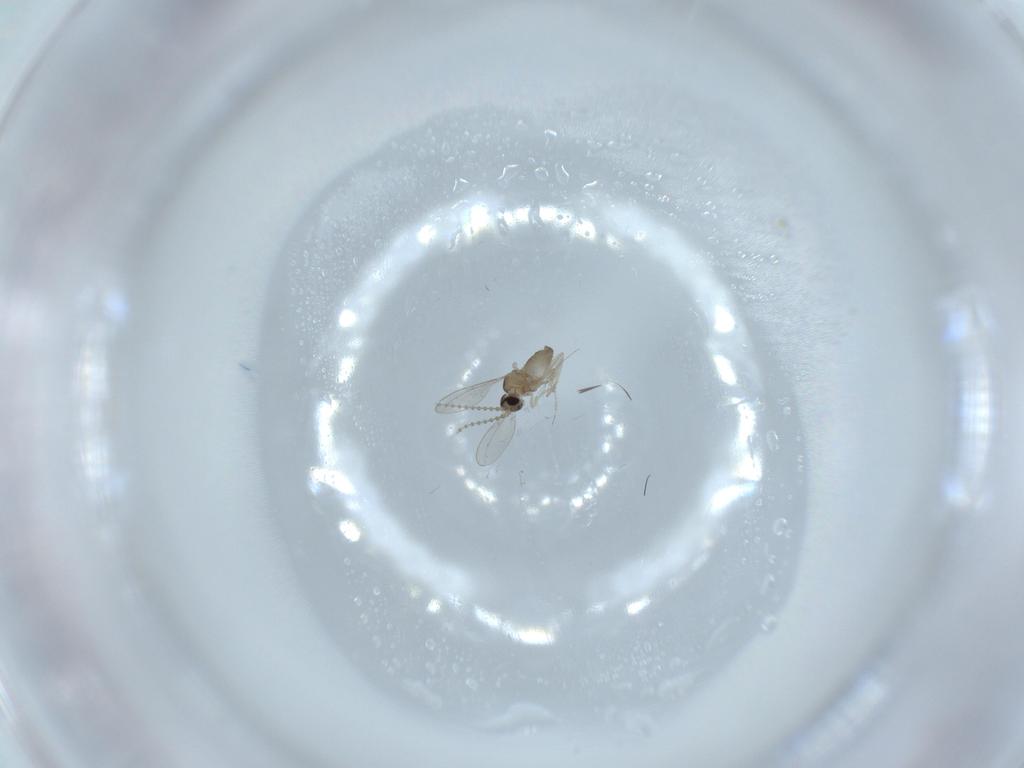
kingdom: Animalia
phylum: Arthropoda
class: Insecta
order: Diptera
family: Cecidomyiidae
